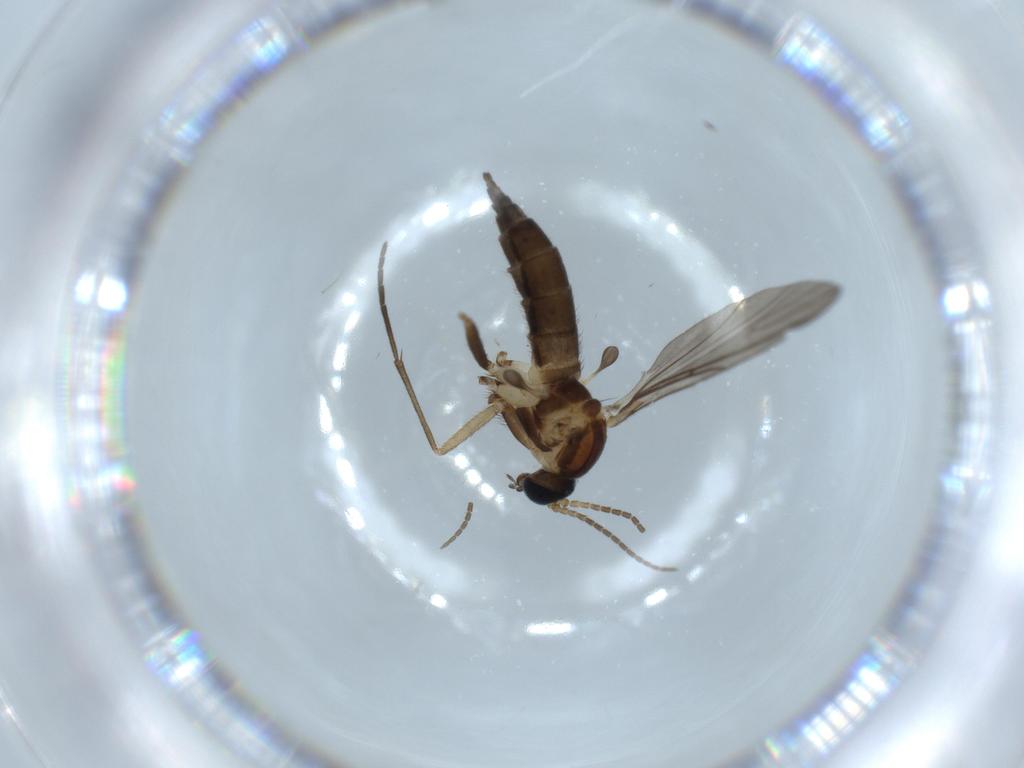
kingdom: Animalia
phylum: Arthropoda
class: Insecta
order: Diptera
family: Sciaridae
